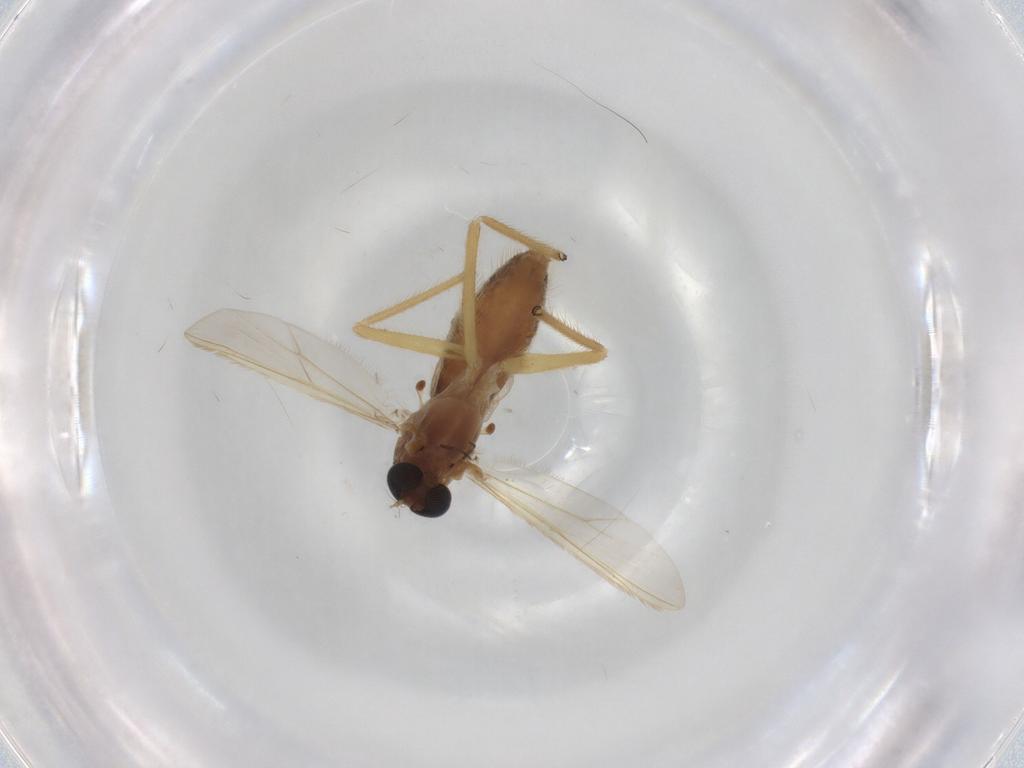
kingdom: Animalia
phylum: Arthropoda
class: Insecta
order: Diptera
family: Chironomidae
